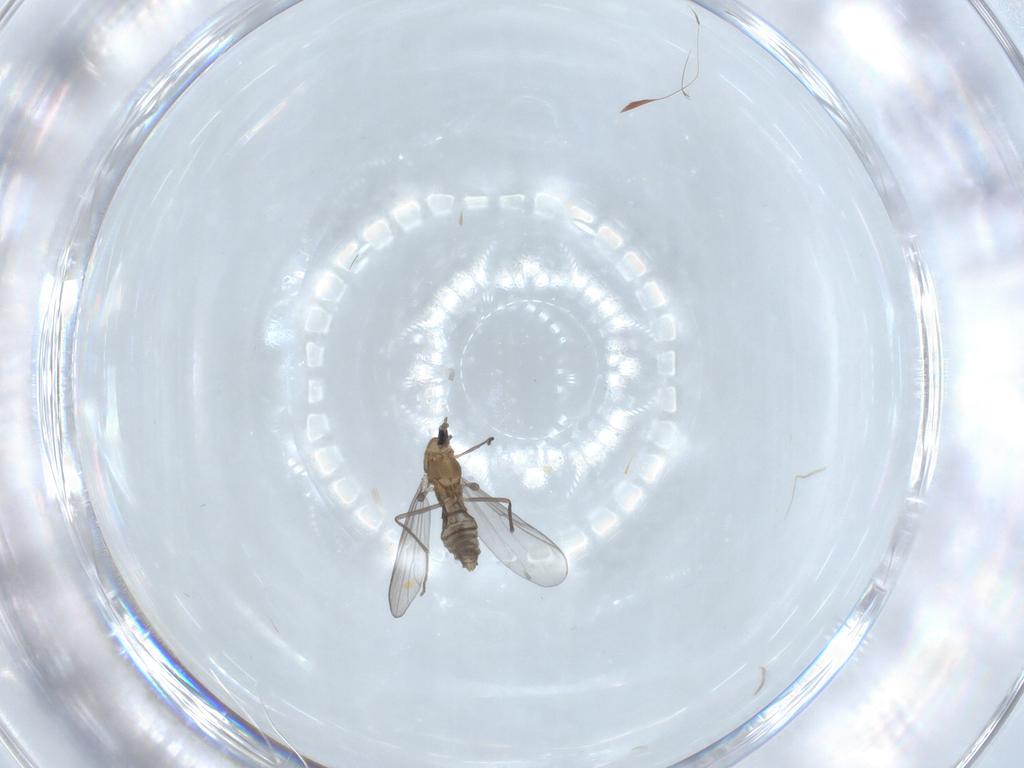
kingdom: Animalia
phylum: Arthropoda
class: Insecta
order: Diptera
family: Chironomidae
